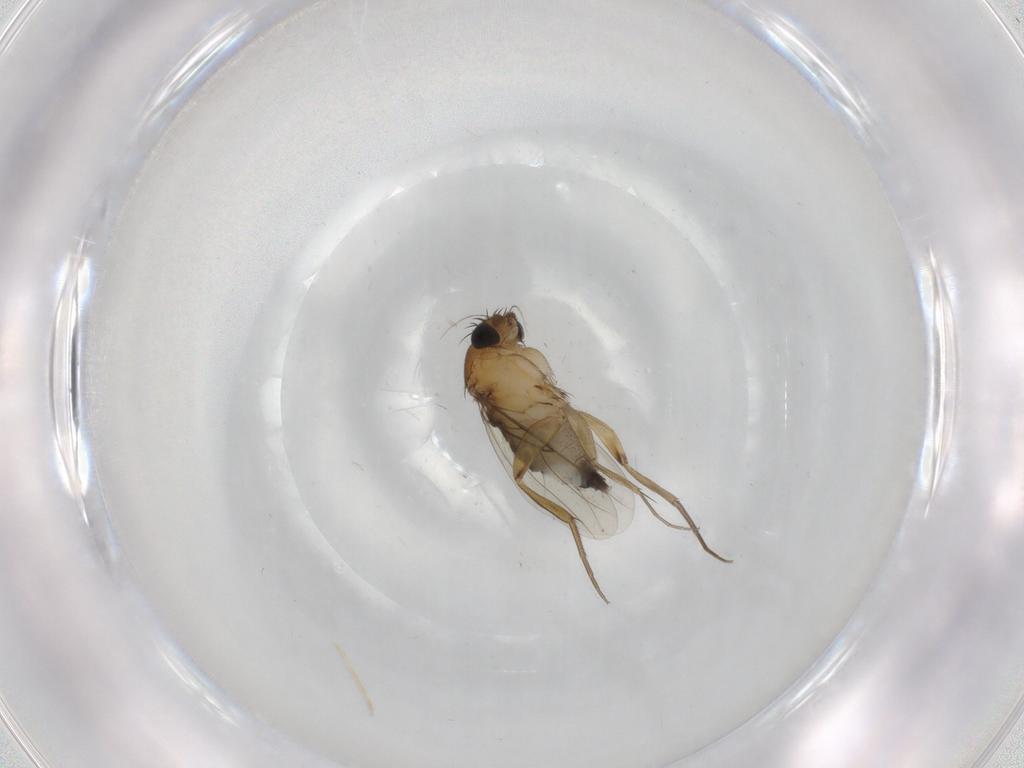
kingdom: Animalia
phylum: Arthropoda
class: Insecta
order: Diptera
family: Phoridae
